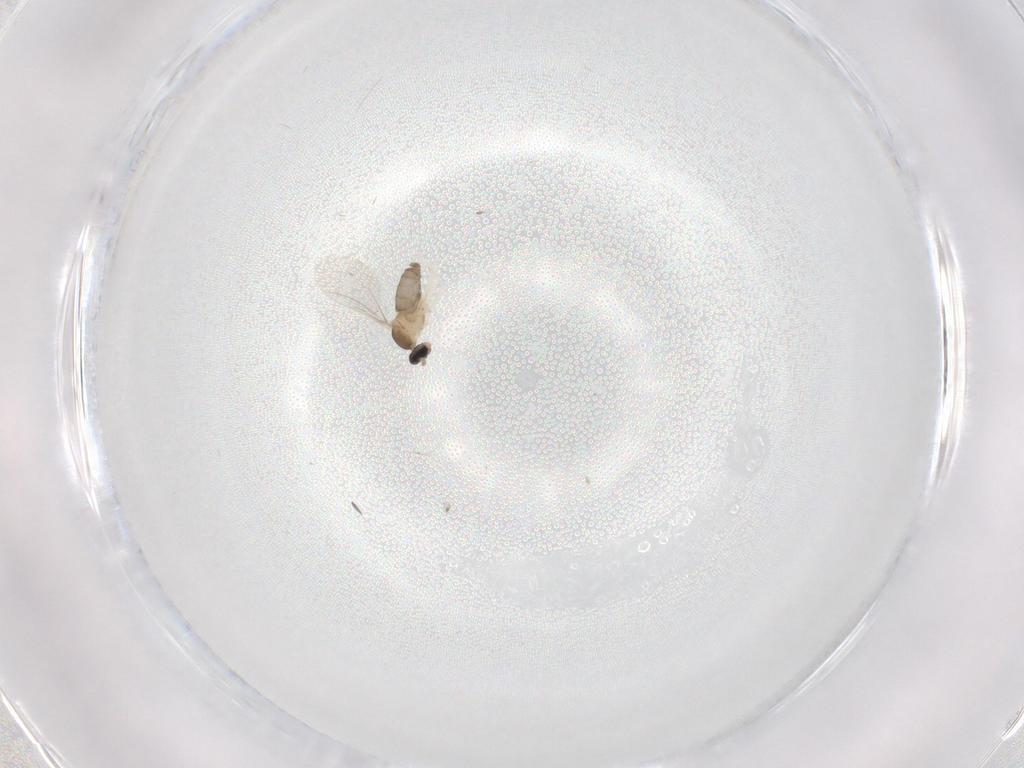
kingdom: Animalia
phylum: Arthropoda
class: Insecta
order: Diptera
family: Cecidomyiidae
